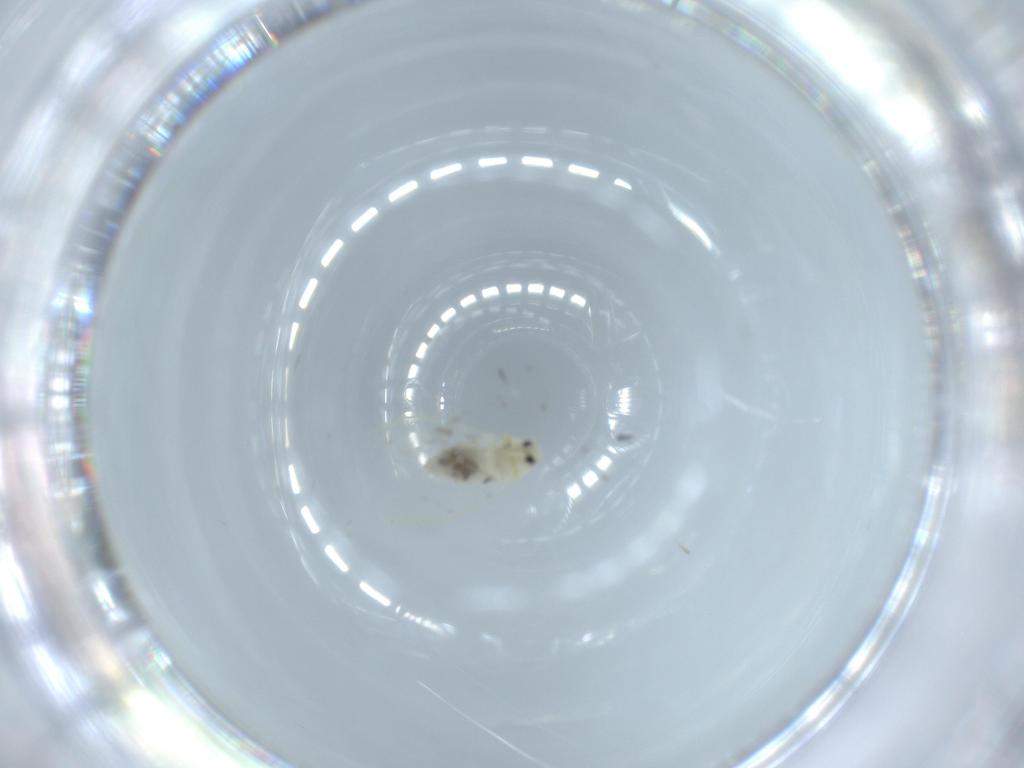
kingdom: Animalia
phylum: Arthropoda
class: Insecta
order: Hemiptera
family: Aleyrodidae
